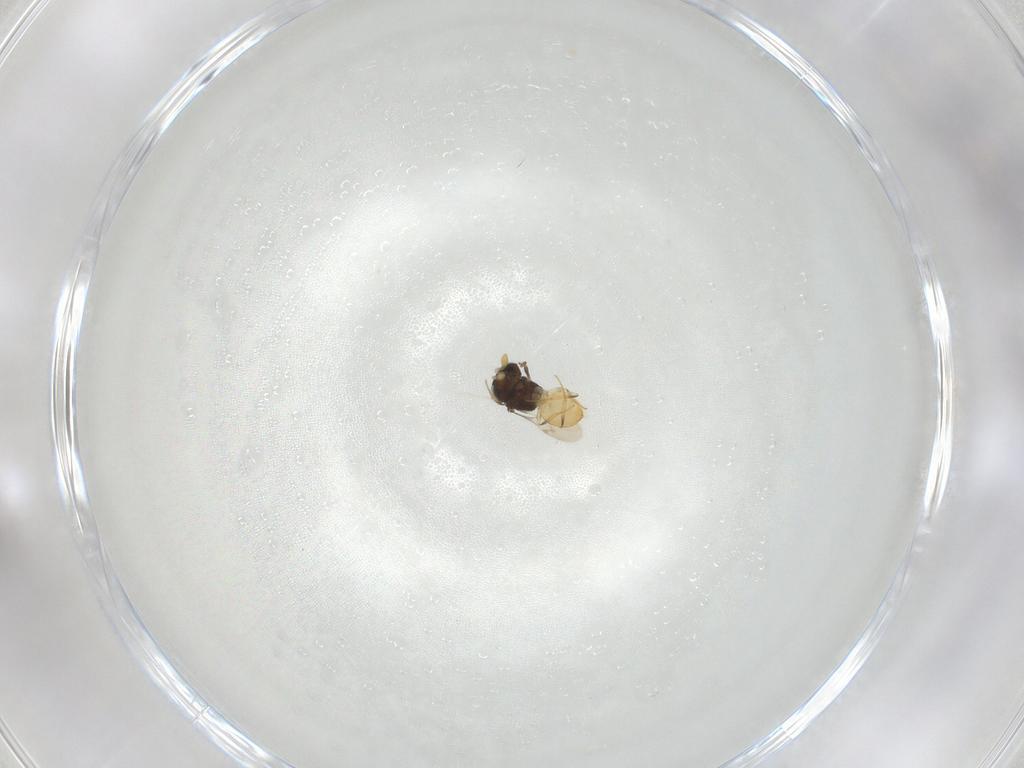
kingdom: Animalia
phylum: Arthropoda
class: Insecta
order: Hymenoptera
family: Scelionidae
